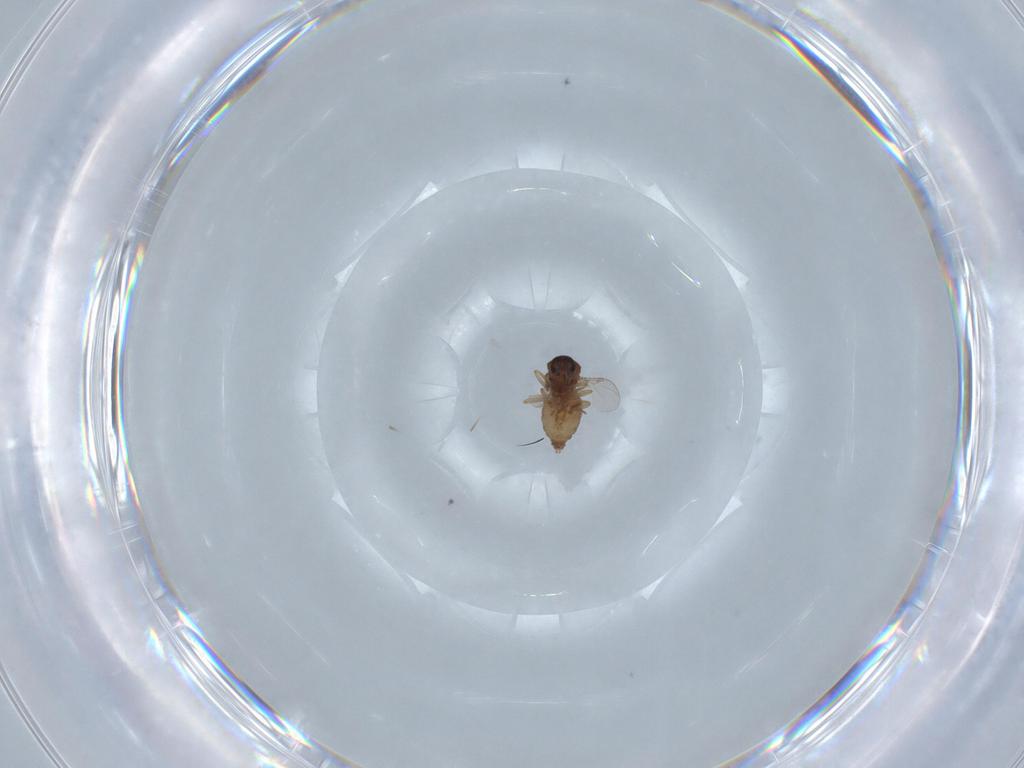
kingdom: Animalia
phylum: Arthropoda
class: Insecta
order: Diptera
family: Ceratopogonidae
